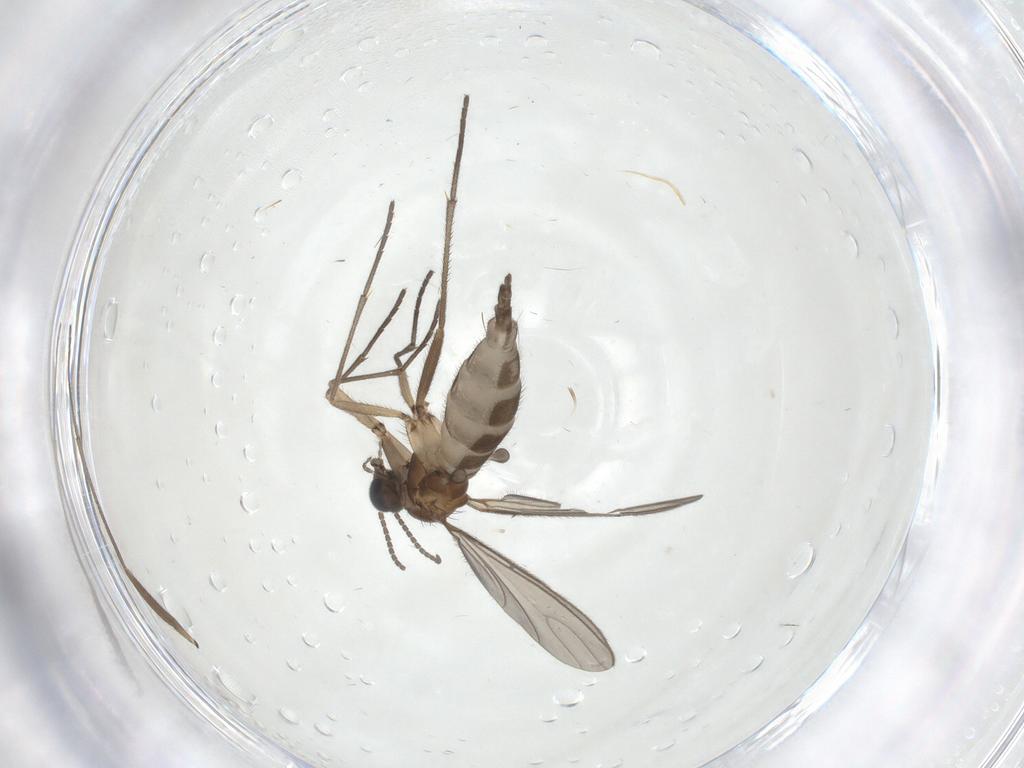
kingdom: Animalia
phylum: Arthropoda
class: Insecta
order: Diptera
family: Sciaridae
